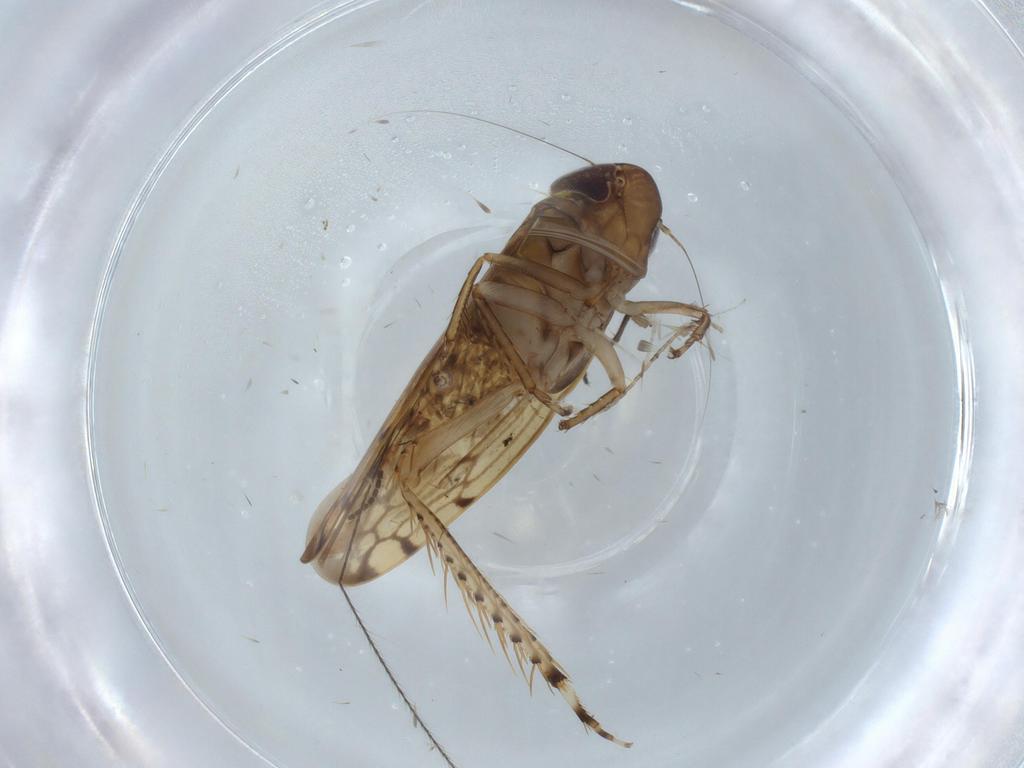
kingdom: Animalia
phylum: Arthropoda
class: Insecta
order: Hemiptera
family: Cicadellidae
